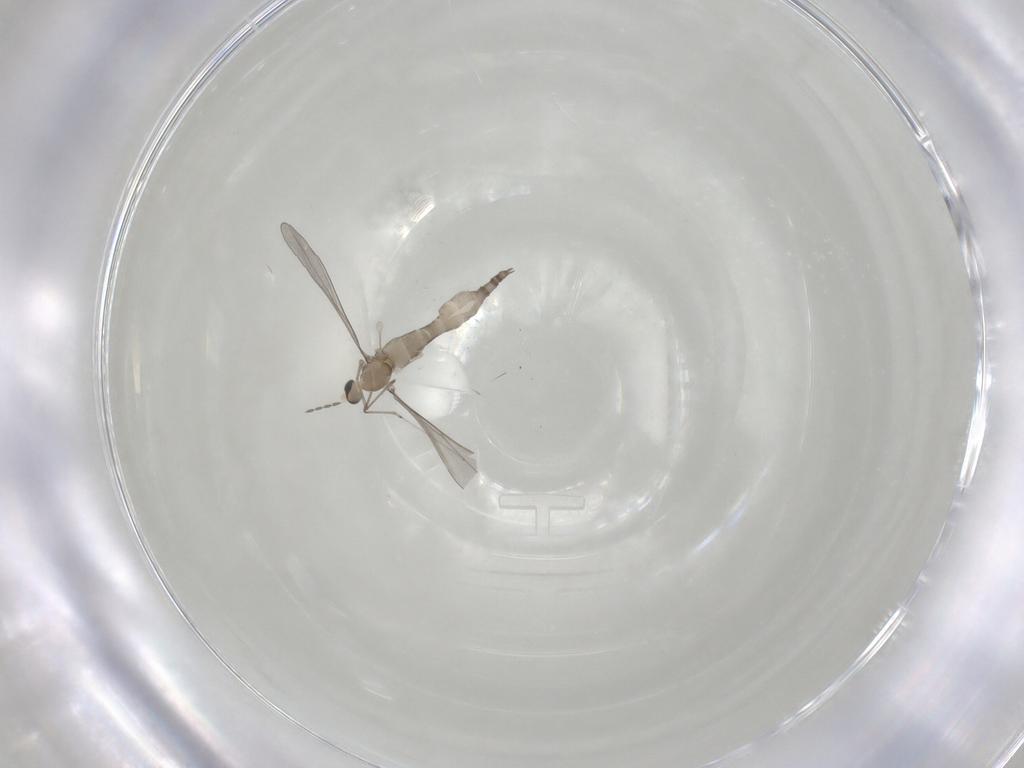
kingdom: Animalia
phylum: Arthropoda
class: Insecta
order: Diptera
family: Cecidomyiidae
